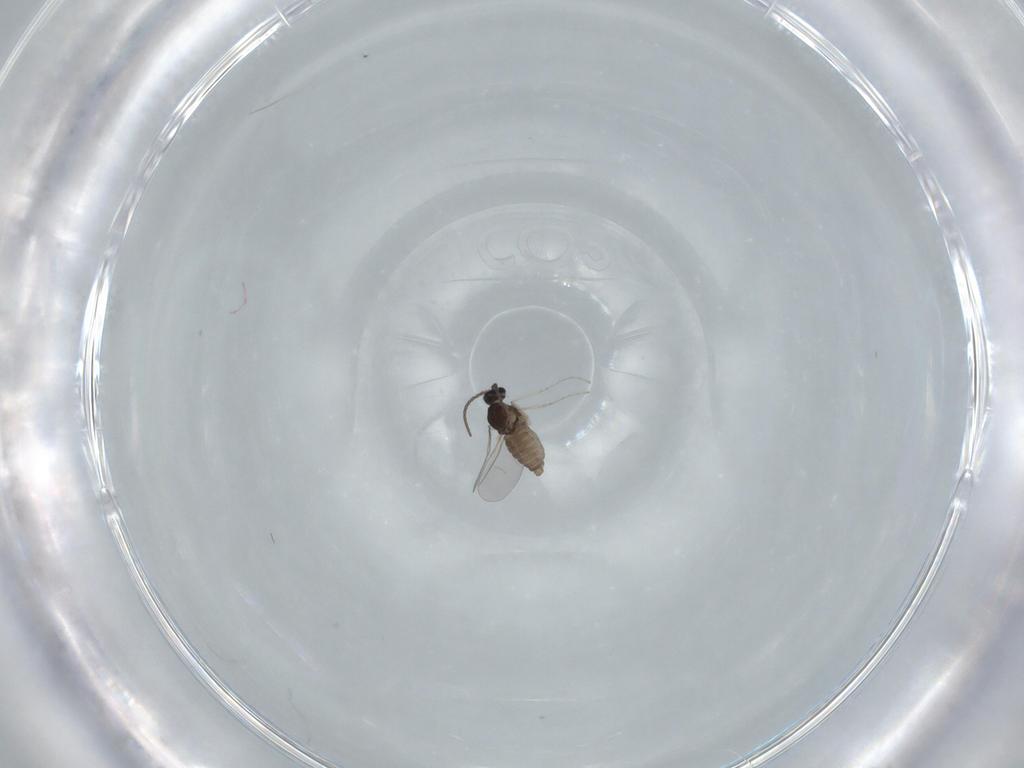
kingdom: Animalia
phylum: Arthropoda
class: Insecta
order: Diptera
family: Cecidomyiidae
